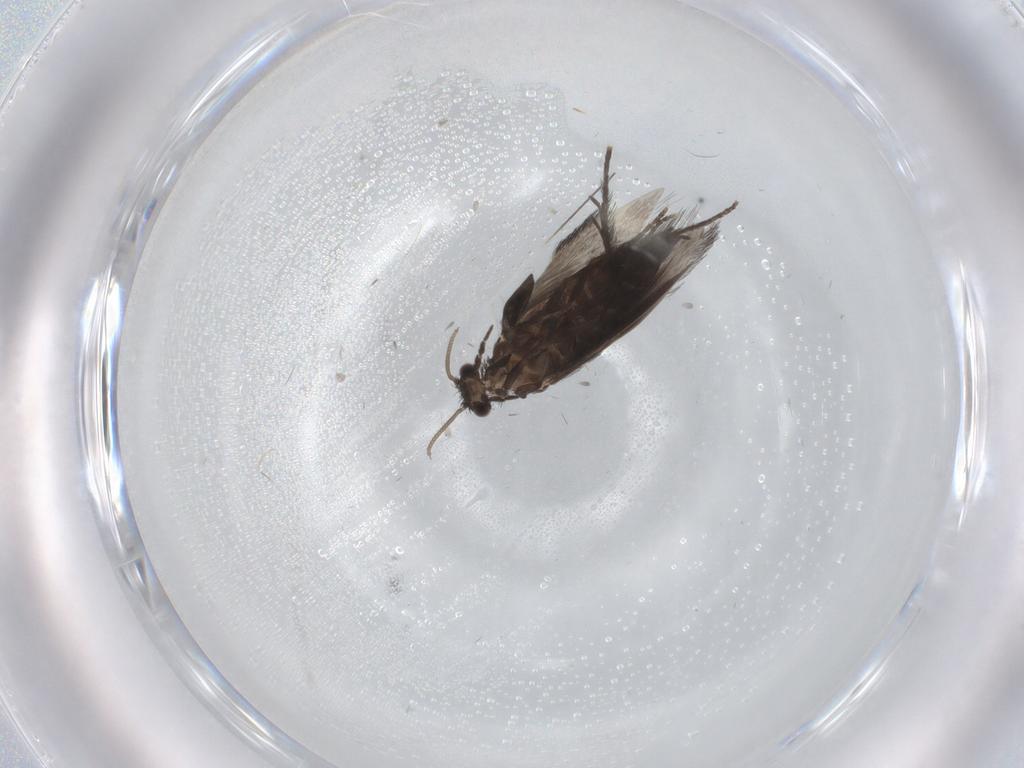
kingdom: Animalia
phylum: Arthropoda
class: Insecta
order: Trichoptera
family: Hydroptilidae
